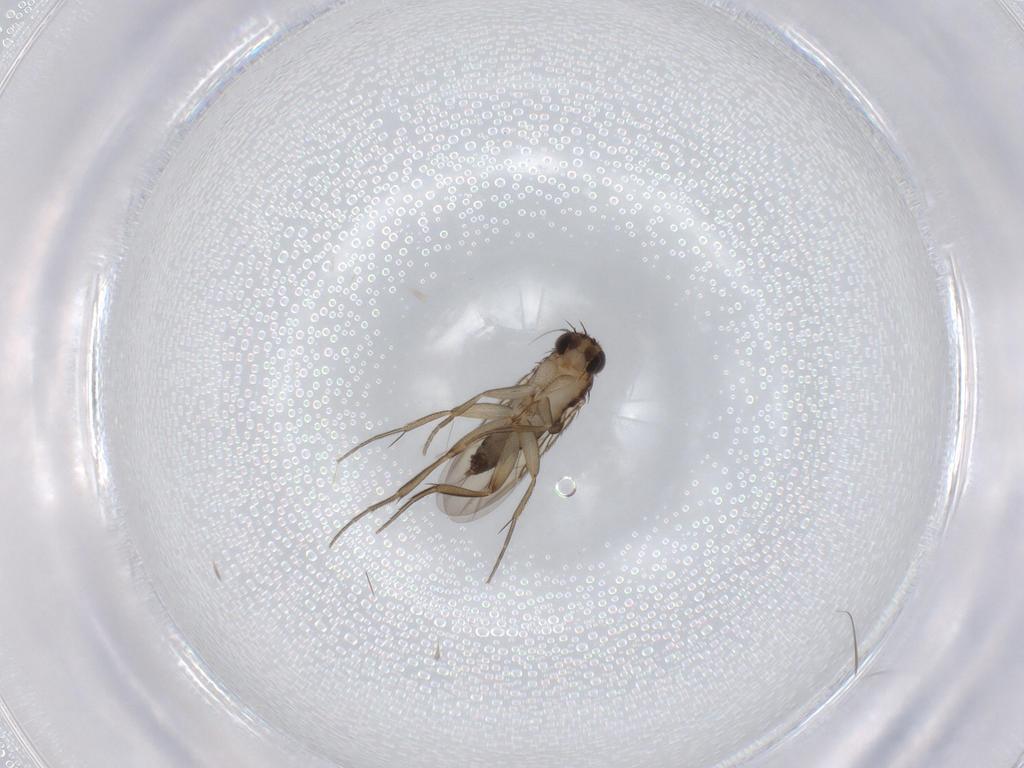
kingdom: Animalia
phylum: Arthropoda
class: Insecta
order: Diptera
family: Phoridae
